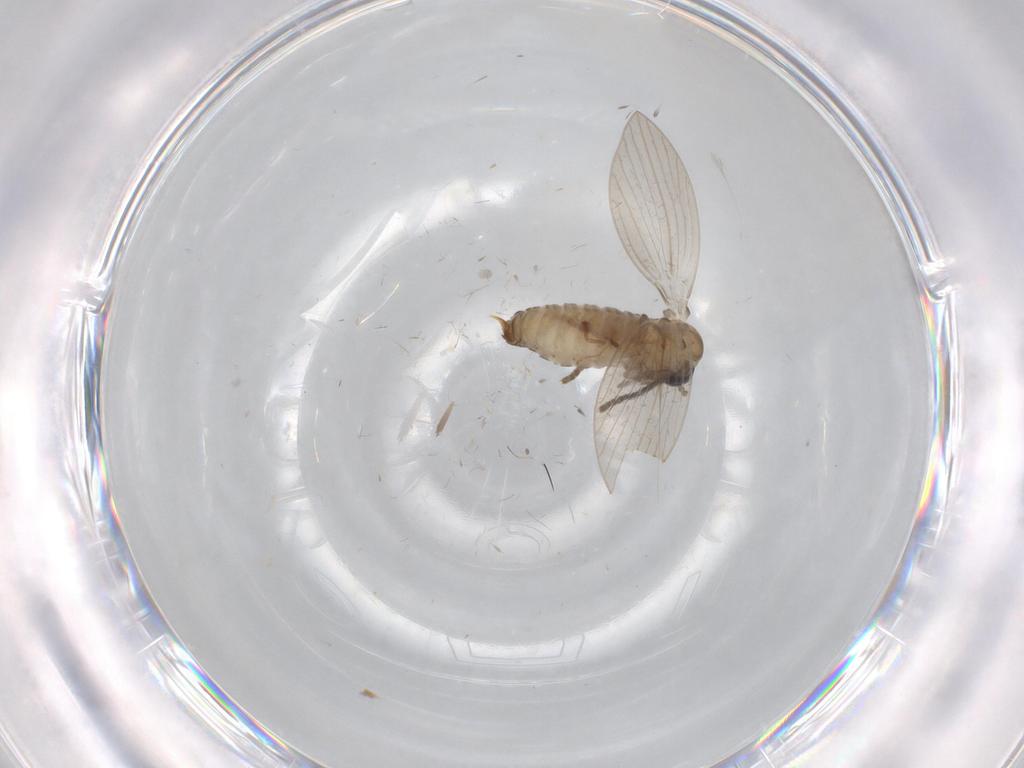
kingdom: Animalia
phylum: Arthropoda
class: Insecta
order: Diptera
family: Psychodidae
